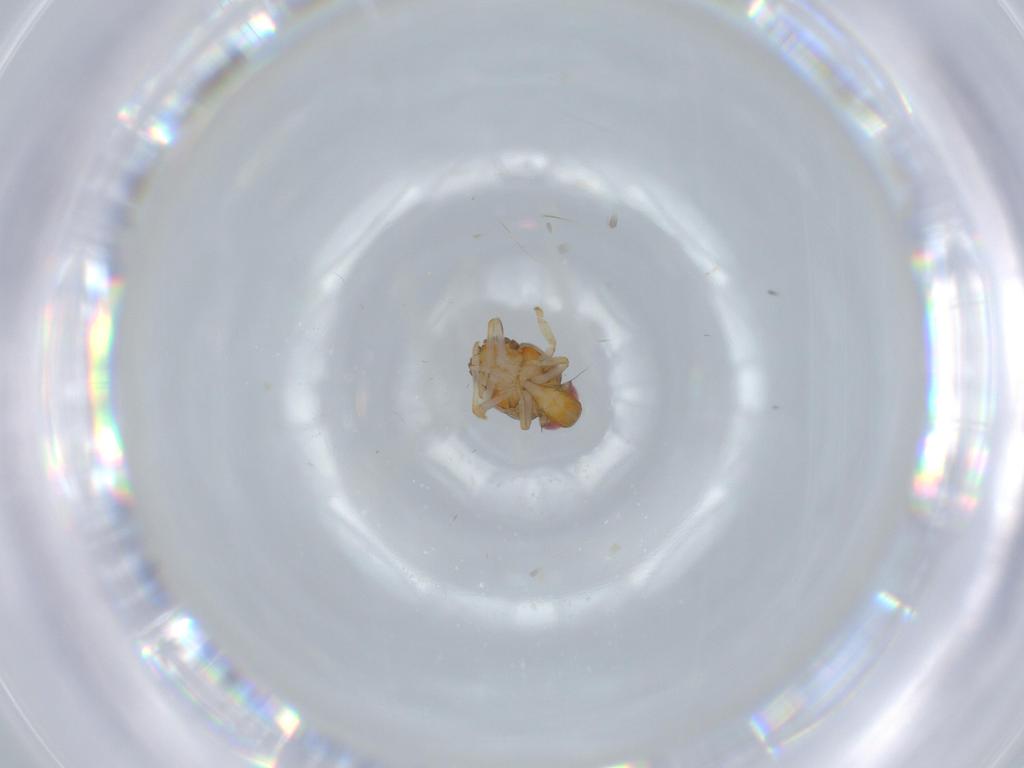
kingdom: Animalia
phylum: Arthropoda
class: Insecta
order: Hemiptera
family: Issidae
